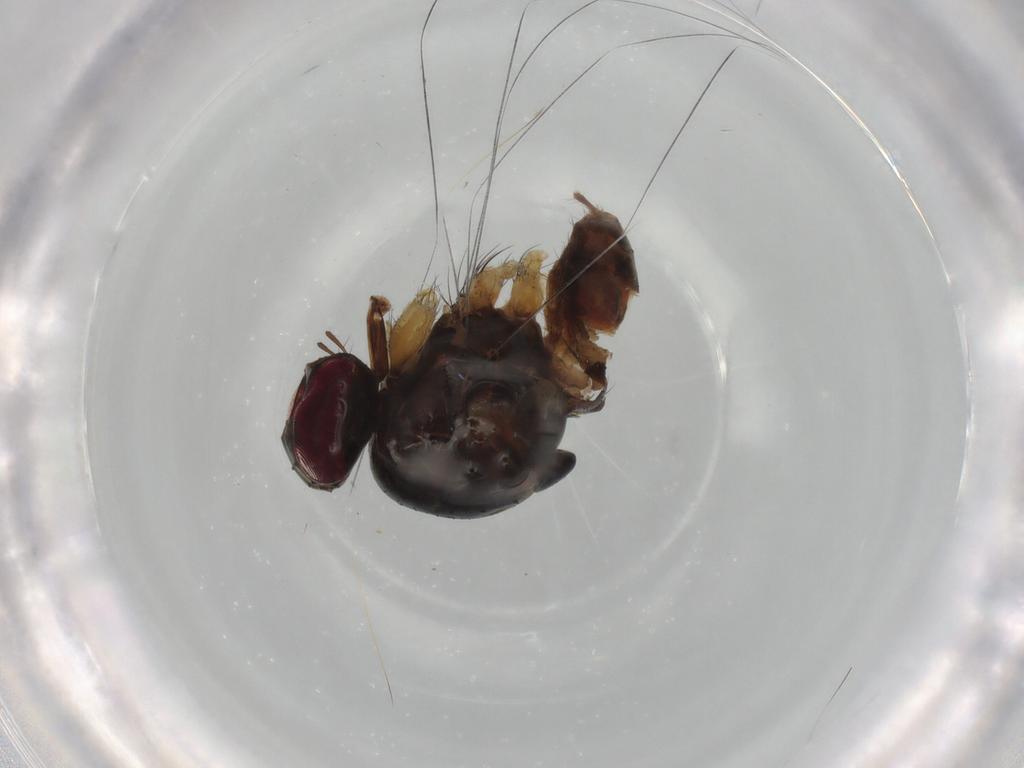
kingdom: Animalia
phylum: Arthropoda
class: Insecta
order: Diptera
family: Muscidae
